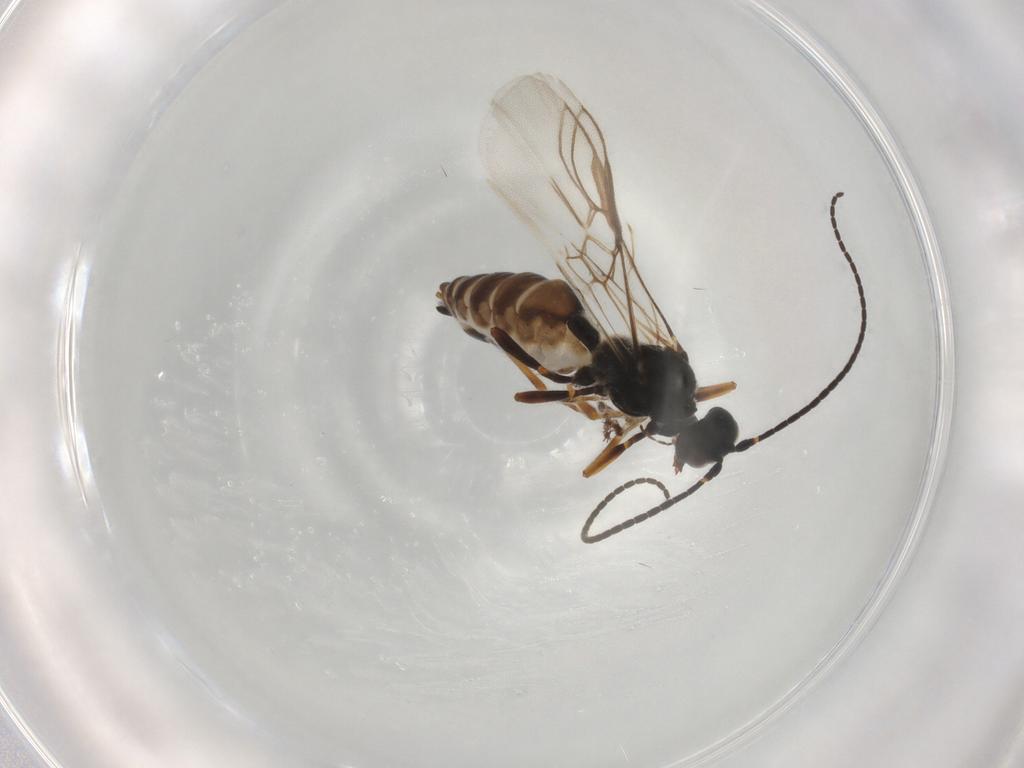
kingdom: Animalia
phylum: Arthropoda
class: Insecta
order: Hymenoptera
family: Braconidae
